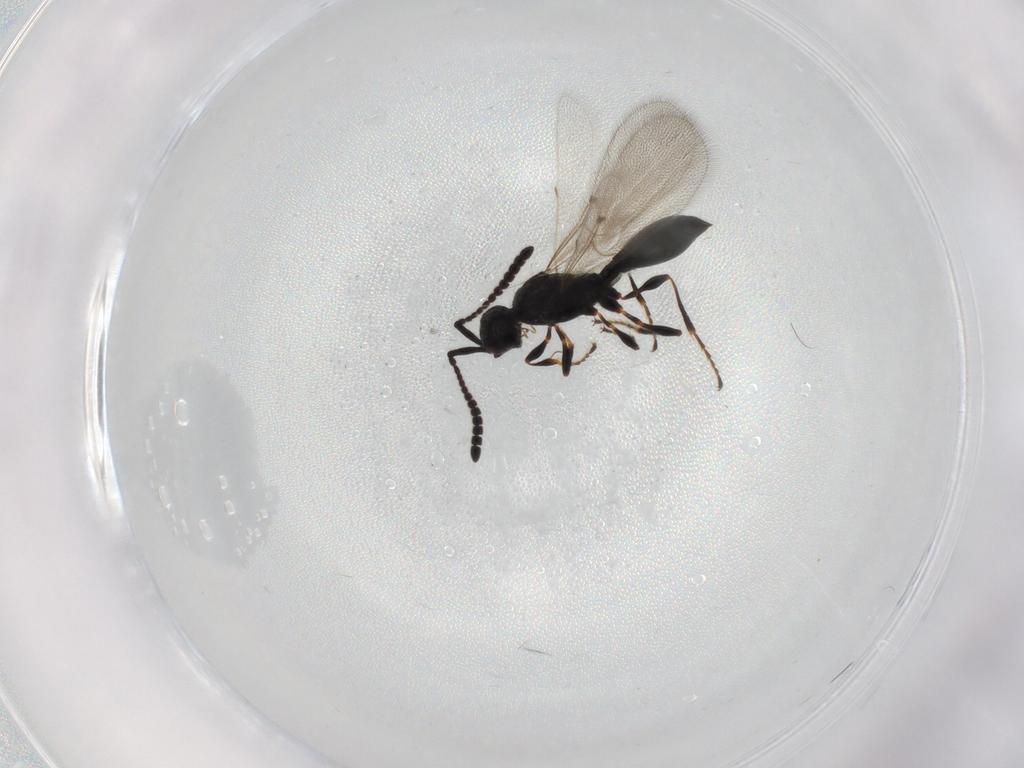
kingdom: Animalia
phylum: Arthropoda
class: Insecta
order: Hymenoptera
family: Diapriidae
